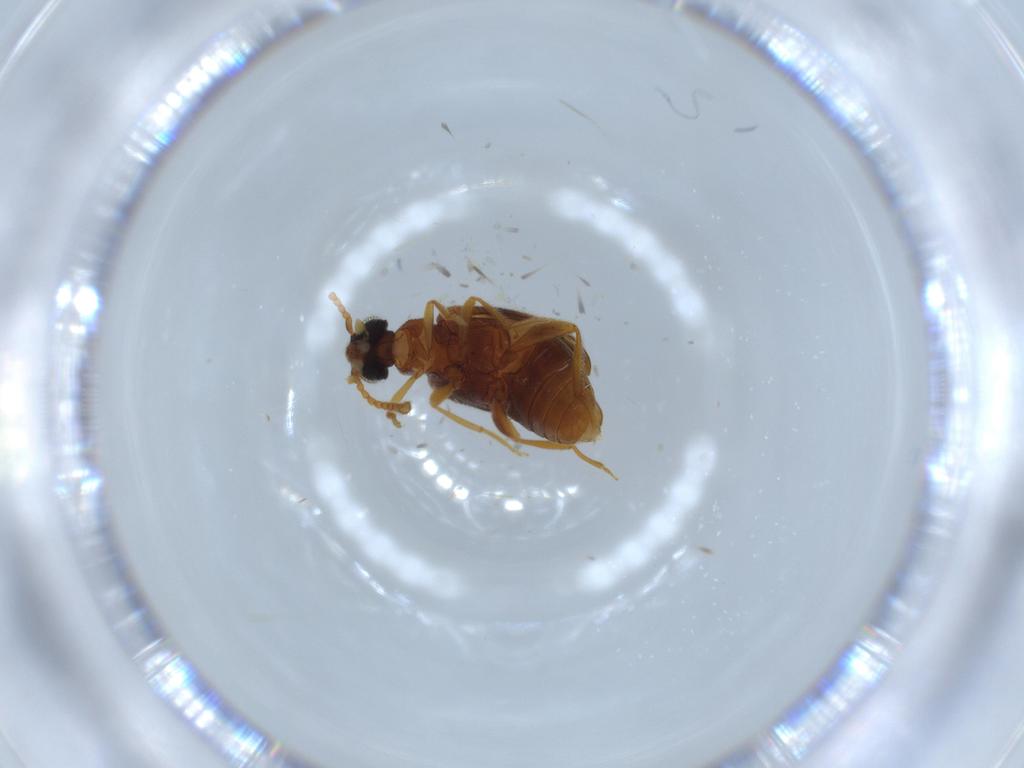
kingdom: Animalia
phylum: Arthropoda
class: Insecta
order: Coleoptera
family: Aderidae
